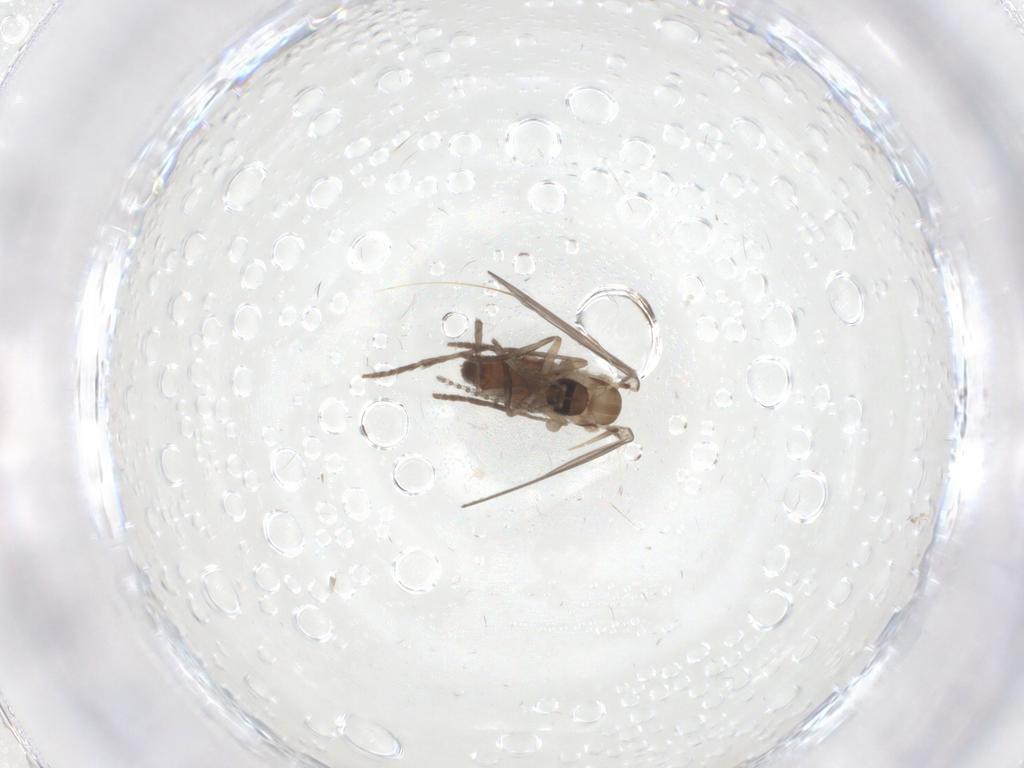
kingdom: Animalia
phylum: Arthropoda
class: Insecta
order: Diptera
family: Psychodidae
